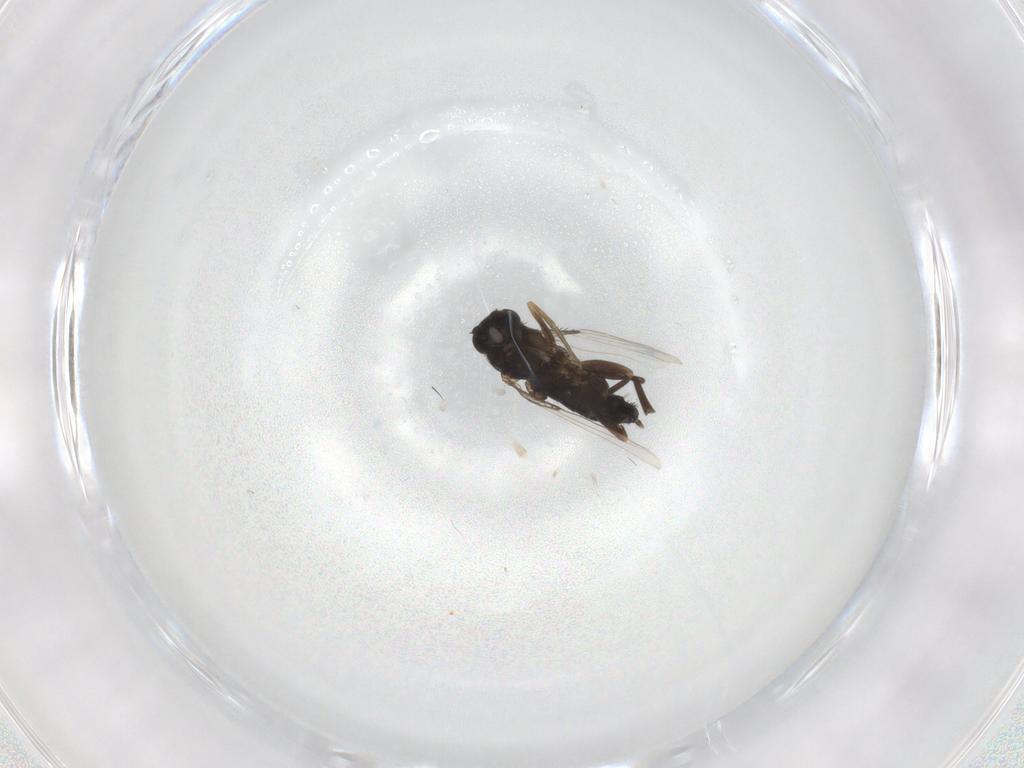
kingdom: Animalia
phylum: Arthropoda
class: Insecta
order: Diptera
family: Phoridae
